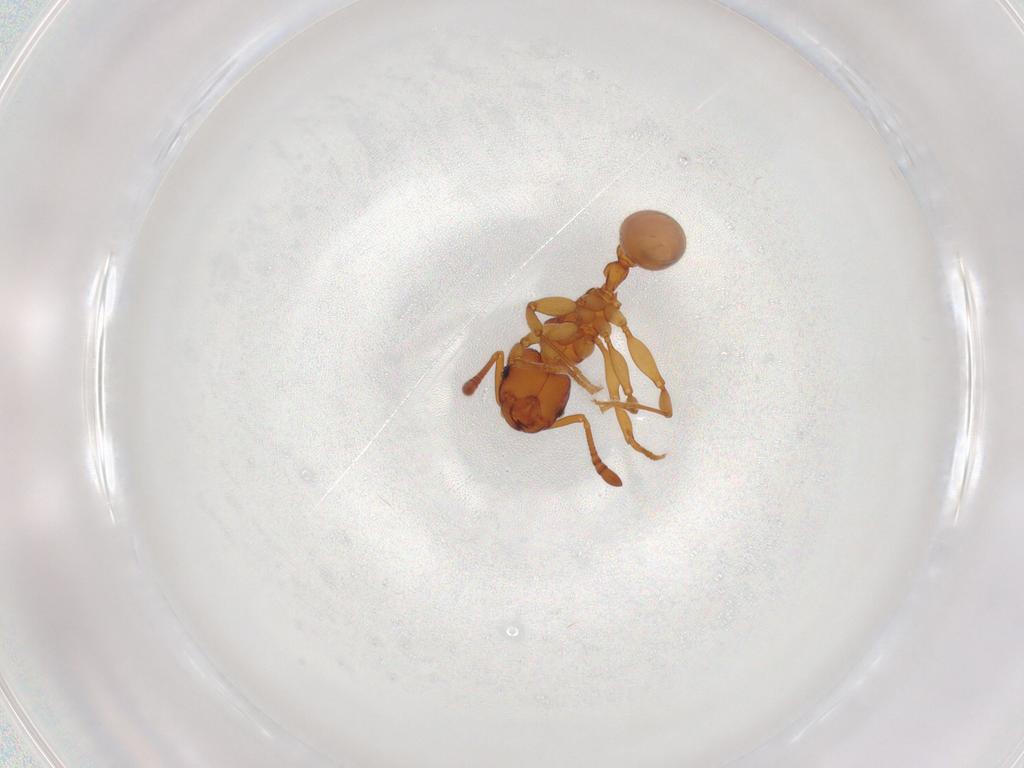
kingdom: Animalia
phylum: Arthropoda
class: Insecta
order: Hymenoptera
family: Formicidae
